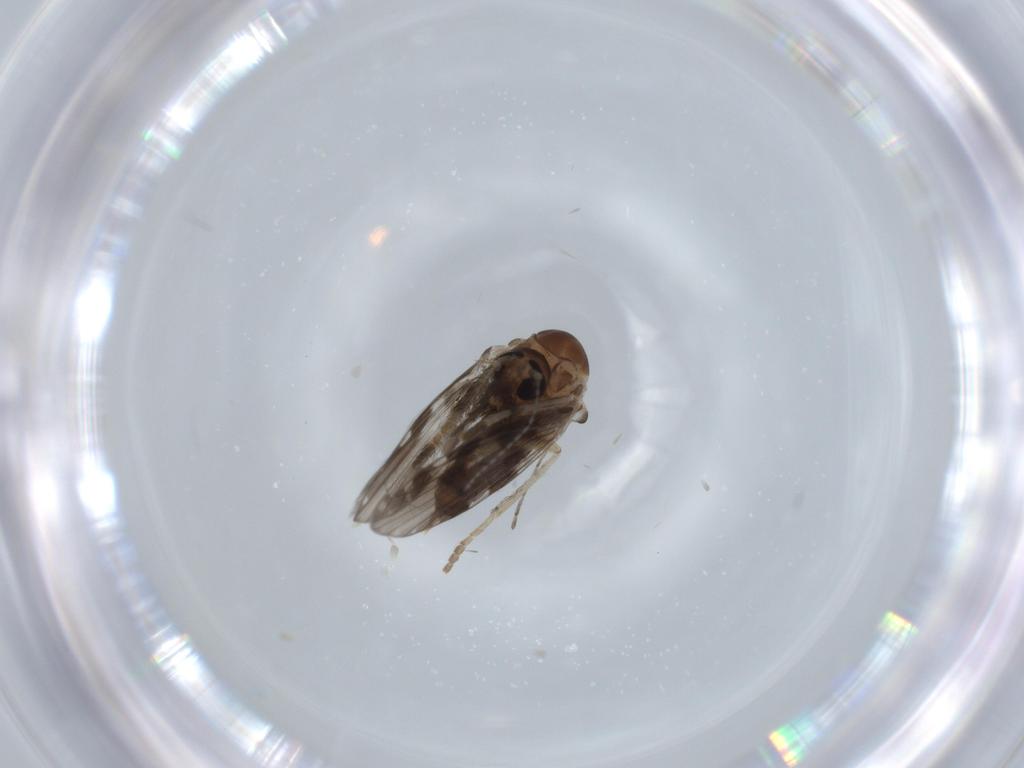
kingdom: Animalia
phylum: Arthropoda
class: Insecta
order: Diptera
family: Psychodidae
